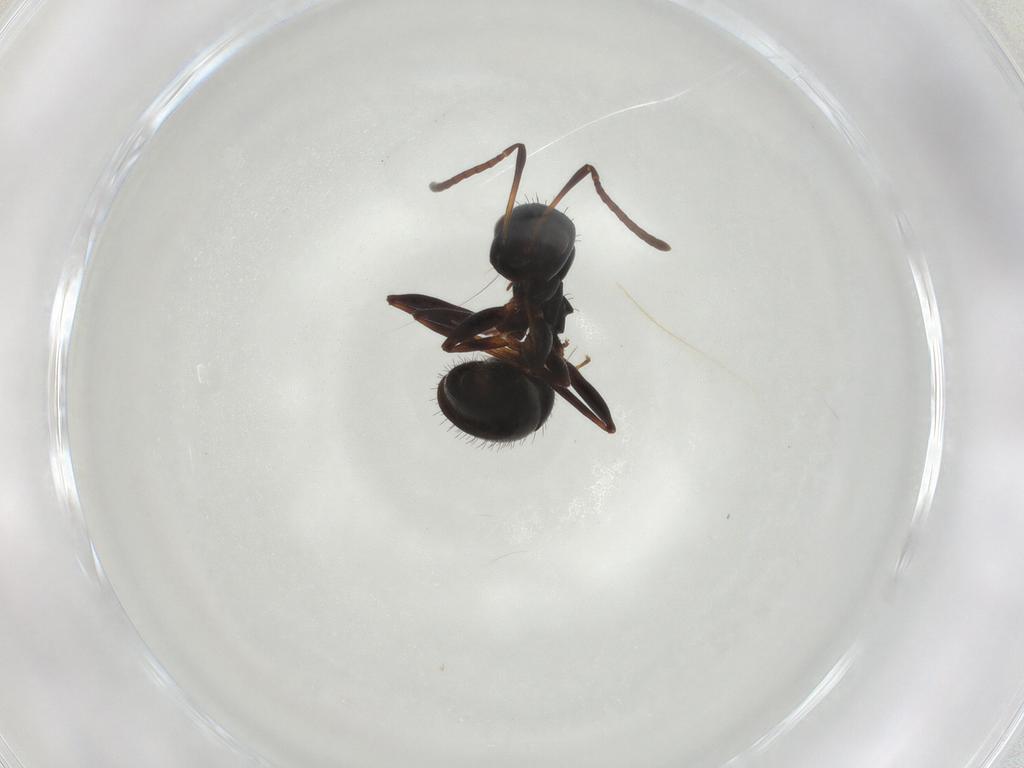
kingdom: Animalia
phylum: Arthropoda
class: Insecta
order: Hymenoptera
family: Formicidae
